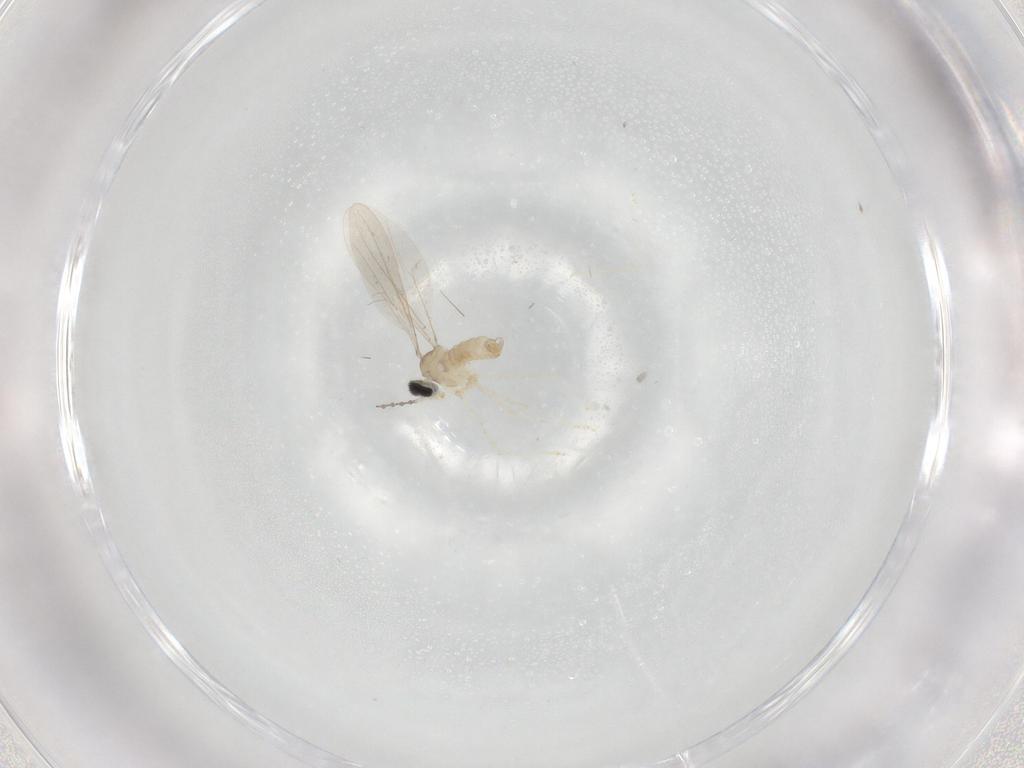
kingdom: Animalia
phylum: Arthropoda
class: Insecta
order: Diptera
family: Cecidomyiidae
